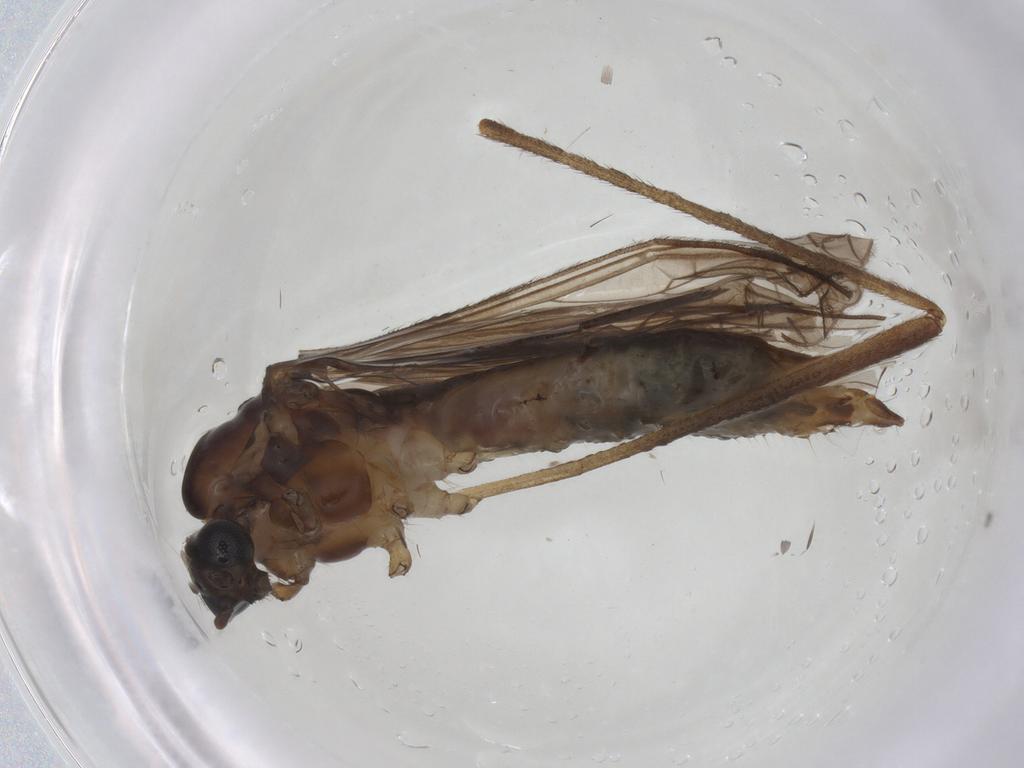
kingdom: Animalia
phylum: Arthropoda
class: Insecta
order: Diptera
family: Limoniidae
